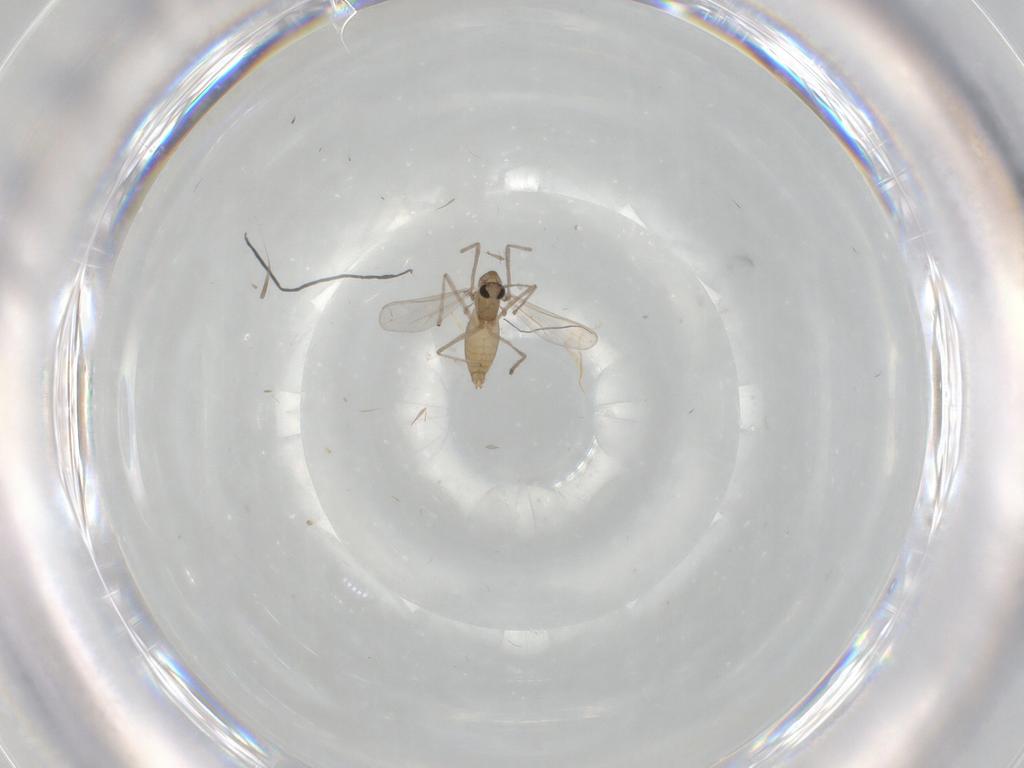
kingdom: Animalia
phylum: Arthropoda
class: Insecta
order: Diptera
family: Chironomidae
